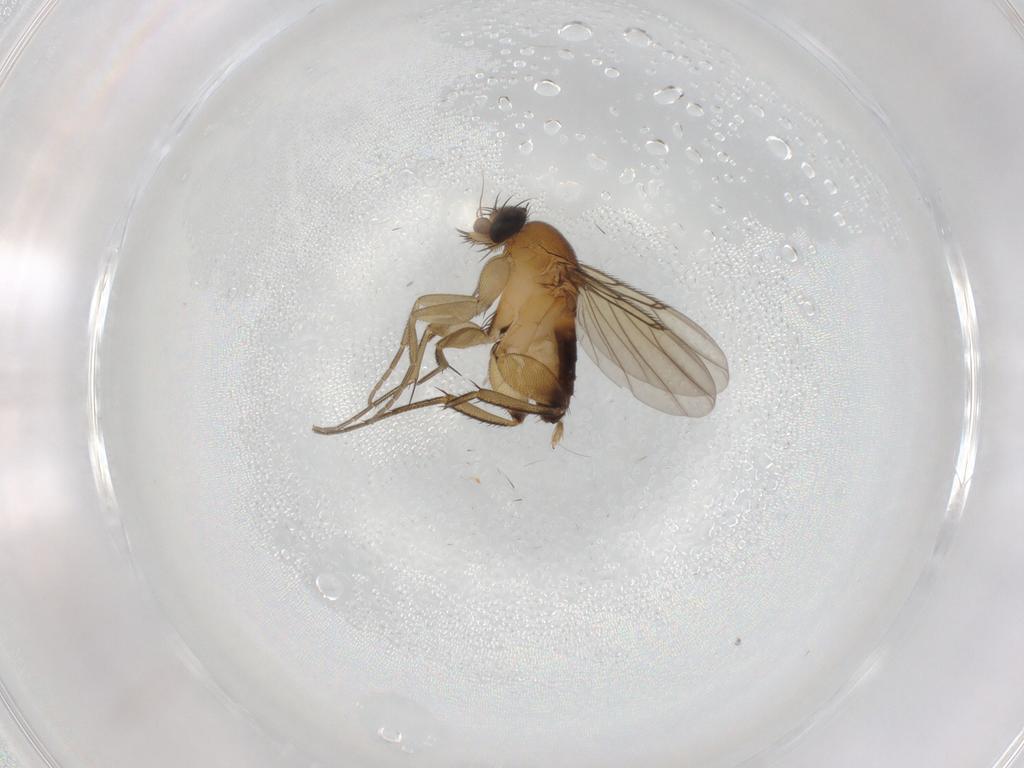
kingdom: Animalia
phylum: Arthropoda
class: Insecta
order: Diptera
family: Phoridae
